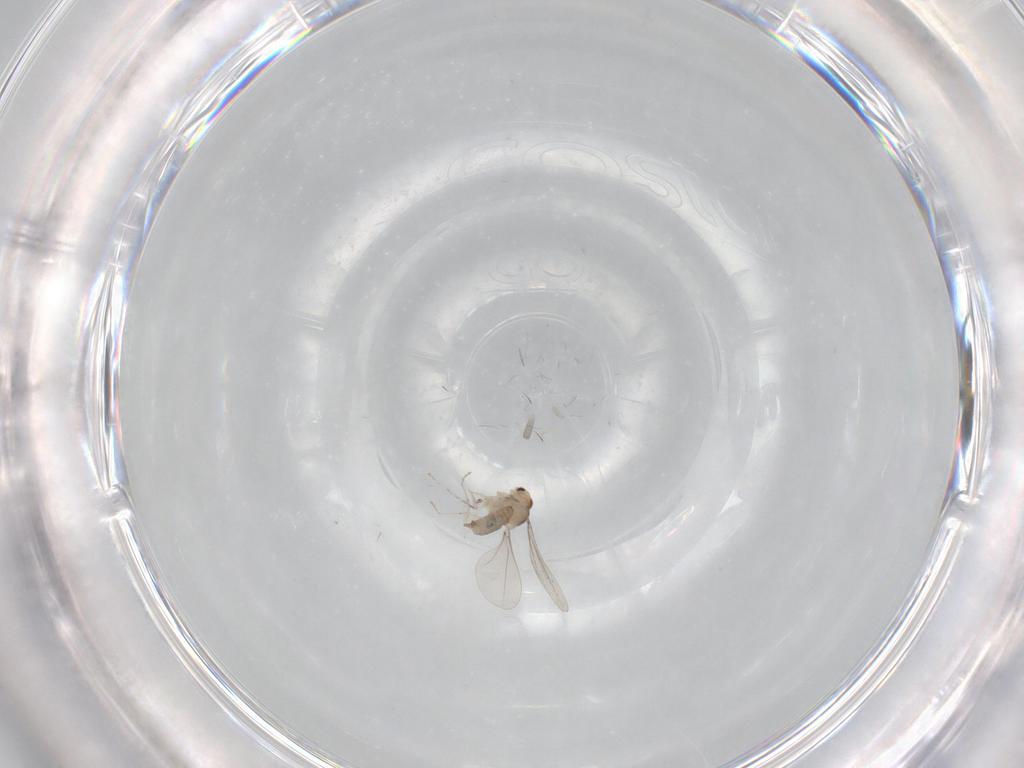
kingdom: Animalia
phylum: Arthropoda
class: Insecta
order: Diptera
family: Cecidomyiidae
